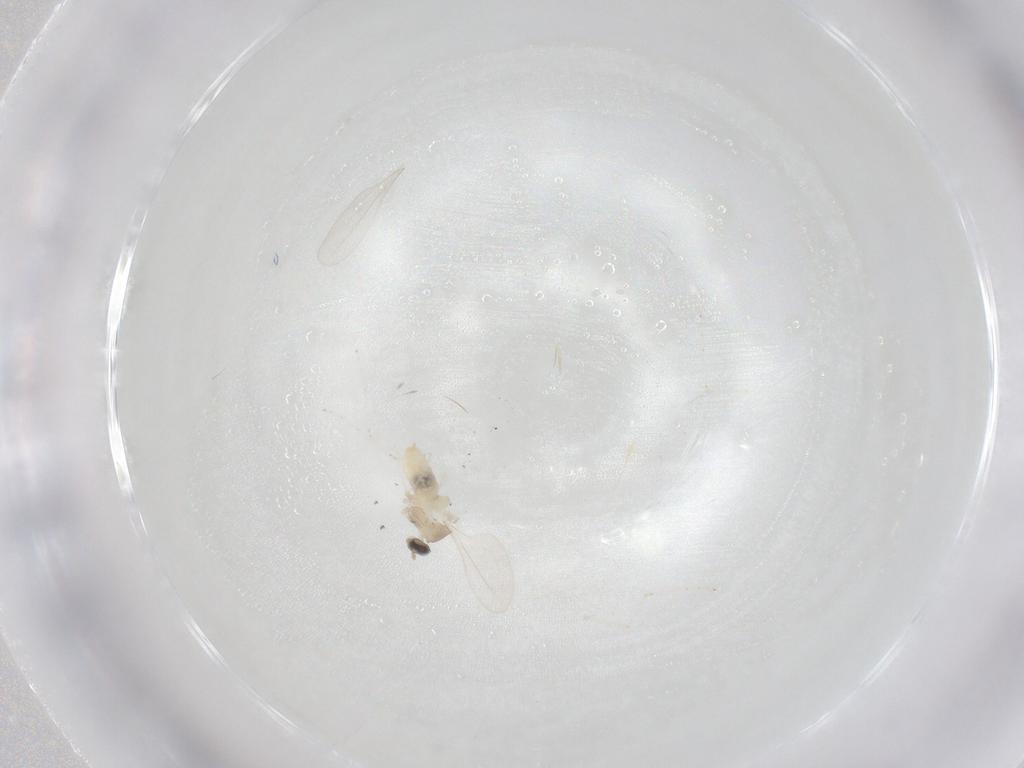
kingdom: Animalia
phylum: Arthropoda
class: Insecta
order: Diptera
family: Cecidomyiidae
